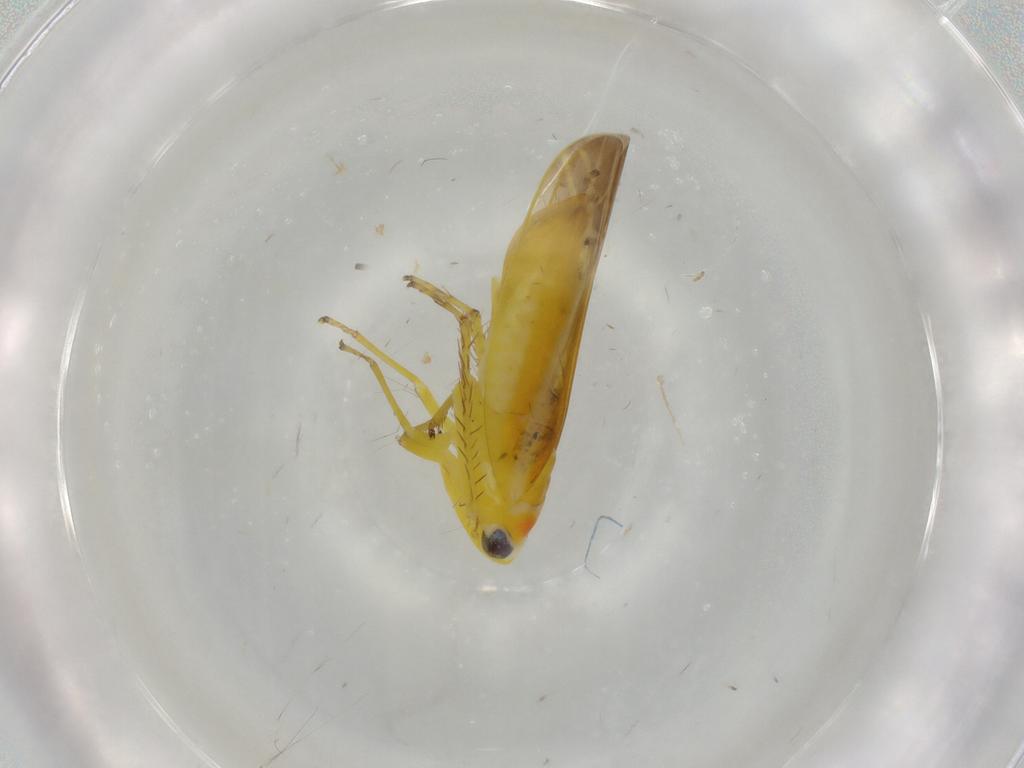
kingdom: Animalia
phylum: Arthropoda
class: Insecta
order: Hemiptera
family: Cicadellidae
